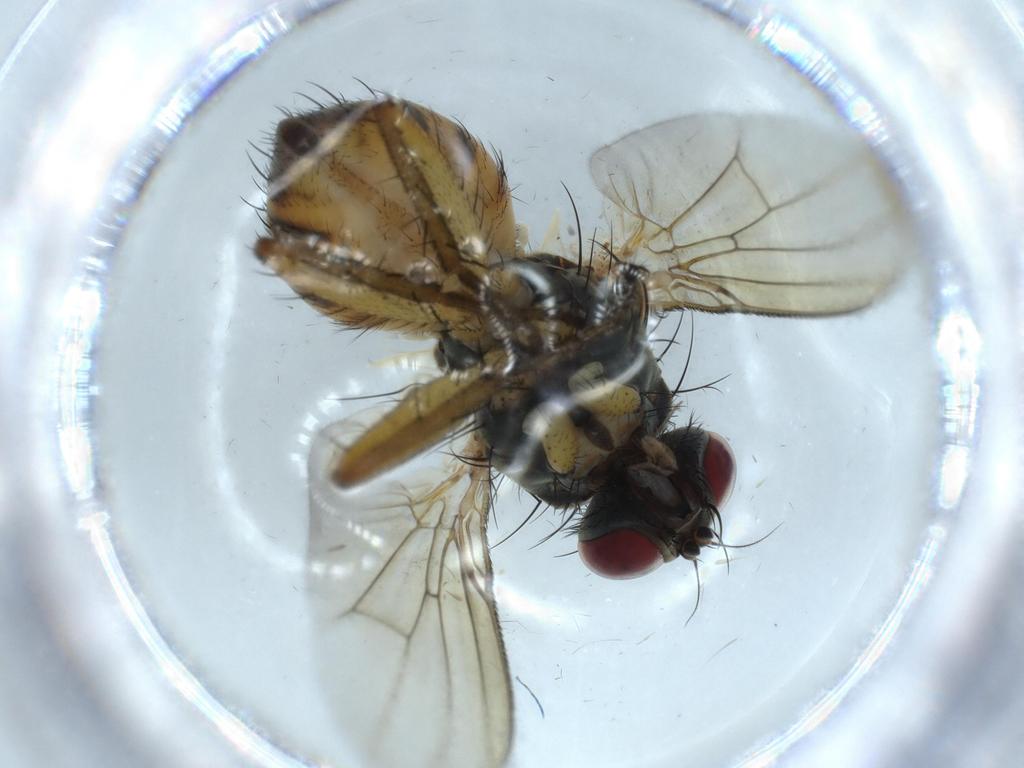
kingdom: Animalia
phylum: Arthropoda
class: Insecta
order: Diptera
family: Muscidae
